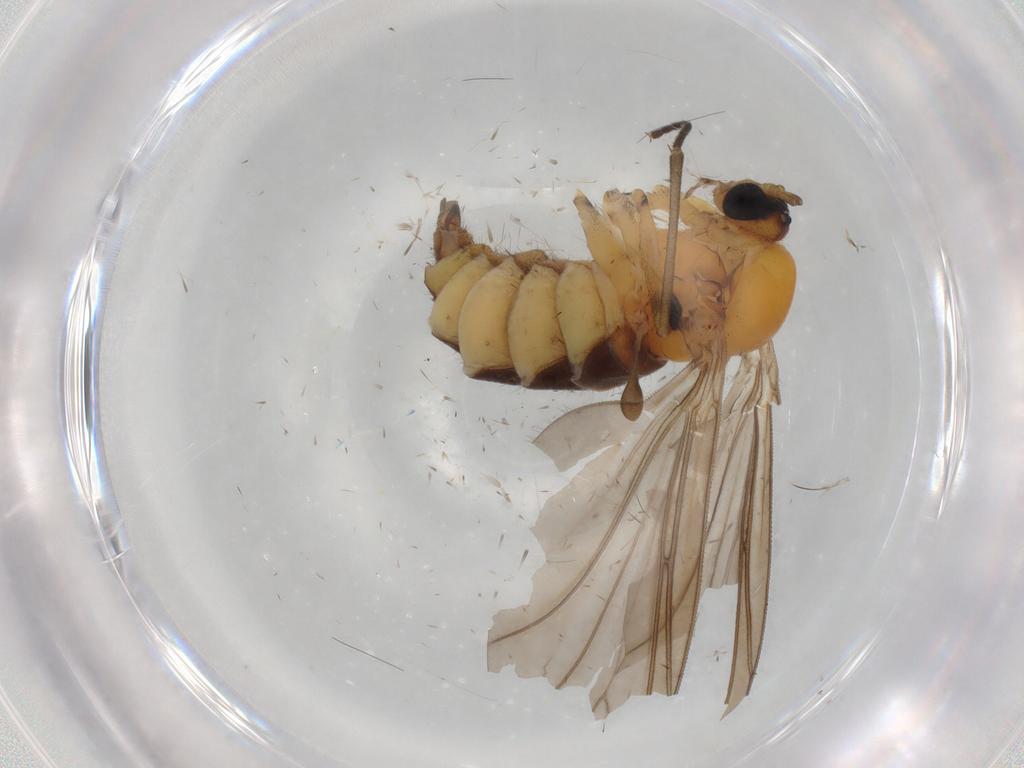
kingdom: Animalia
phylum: Arthropoda
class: Insecta
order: Diptera
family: Sciaridae
